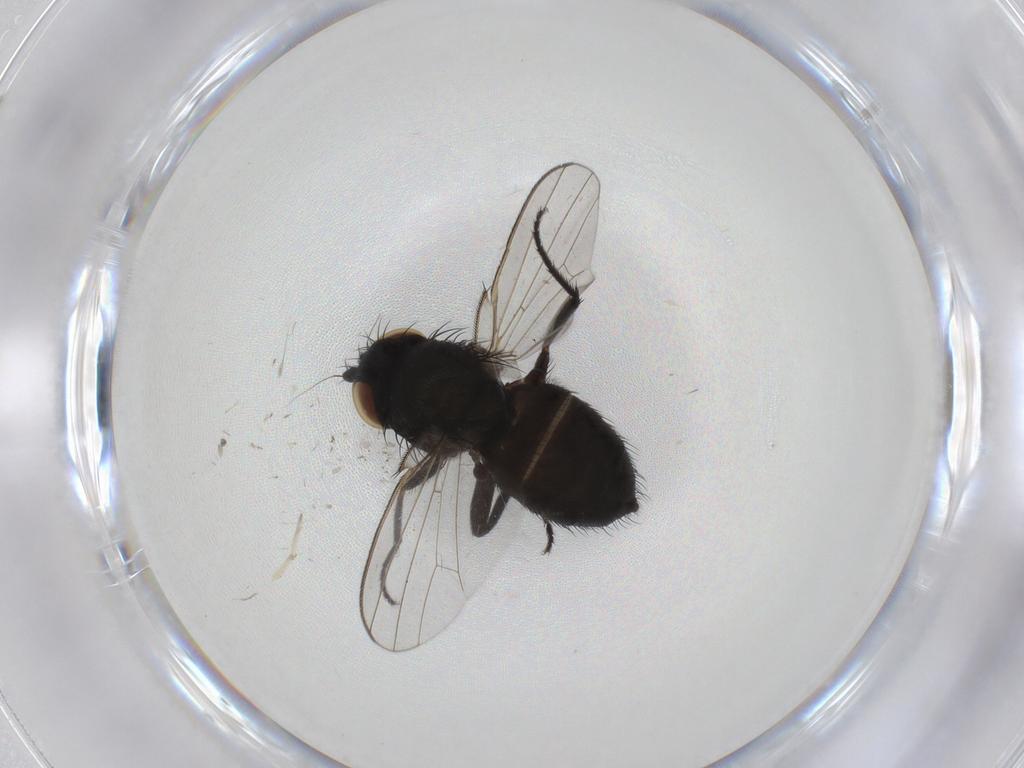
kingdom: Animalia
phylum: Arthropoda
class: Insecta
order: Diptera
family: Milichiidae
